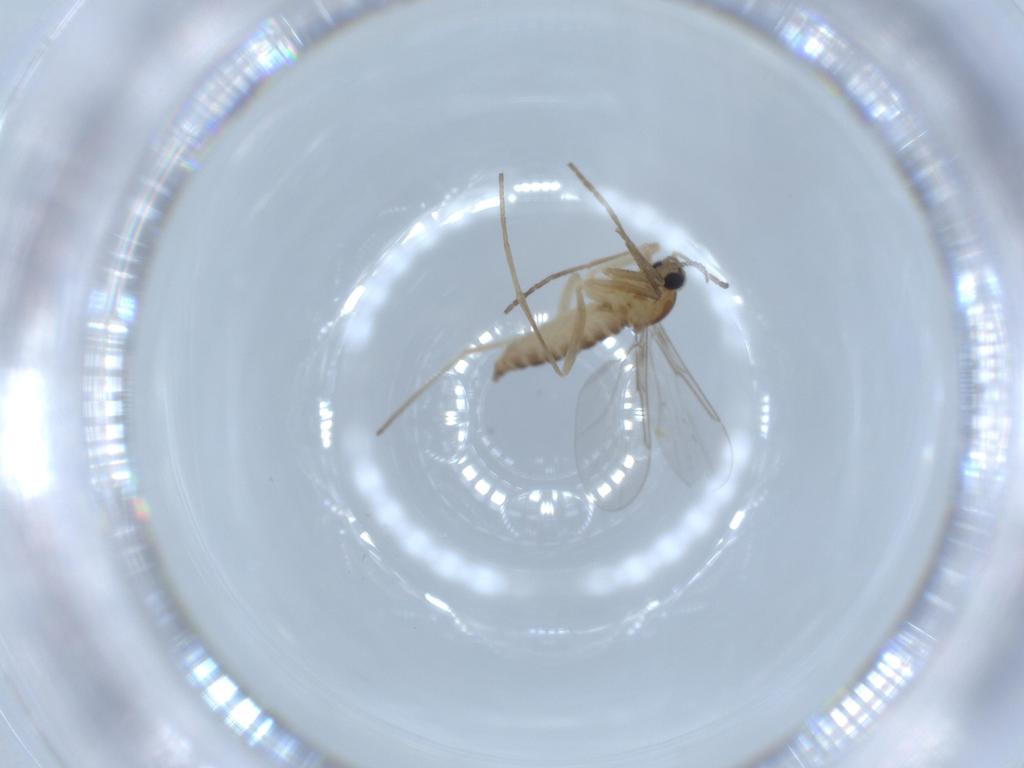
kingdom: Animalia
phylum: Arthropoda
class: Insecta
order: Diptera
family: Cecidomyiidae
